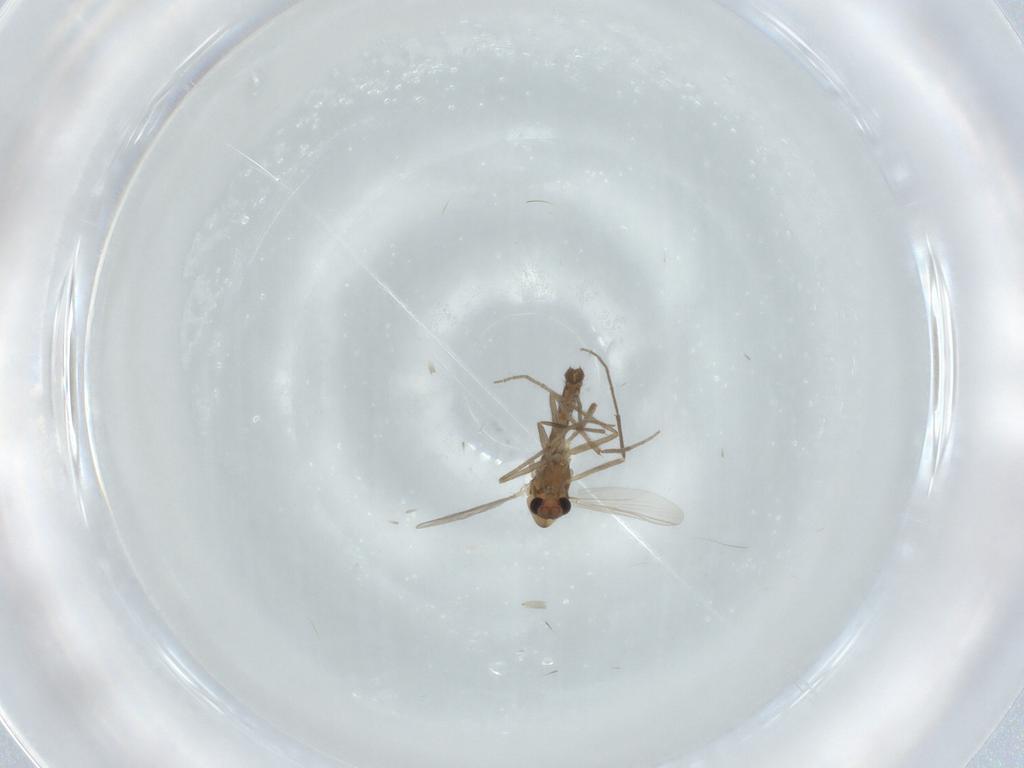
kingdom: Animalia
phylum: Arthropoda
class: Insecta
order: Diptera
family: Chironomidae
